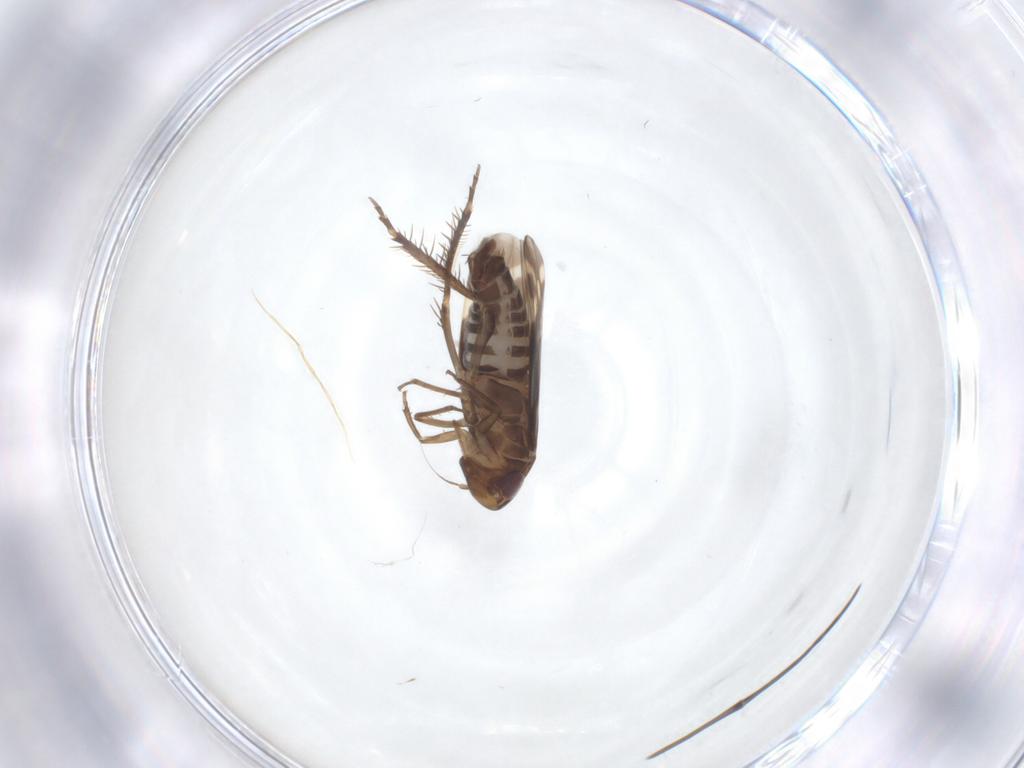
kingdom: Animalia
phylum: Arthropoda
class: Insecta
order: Hemiptera
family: Cicadellidae
